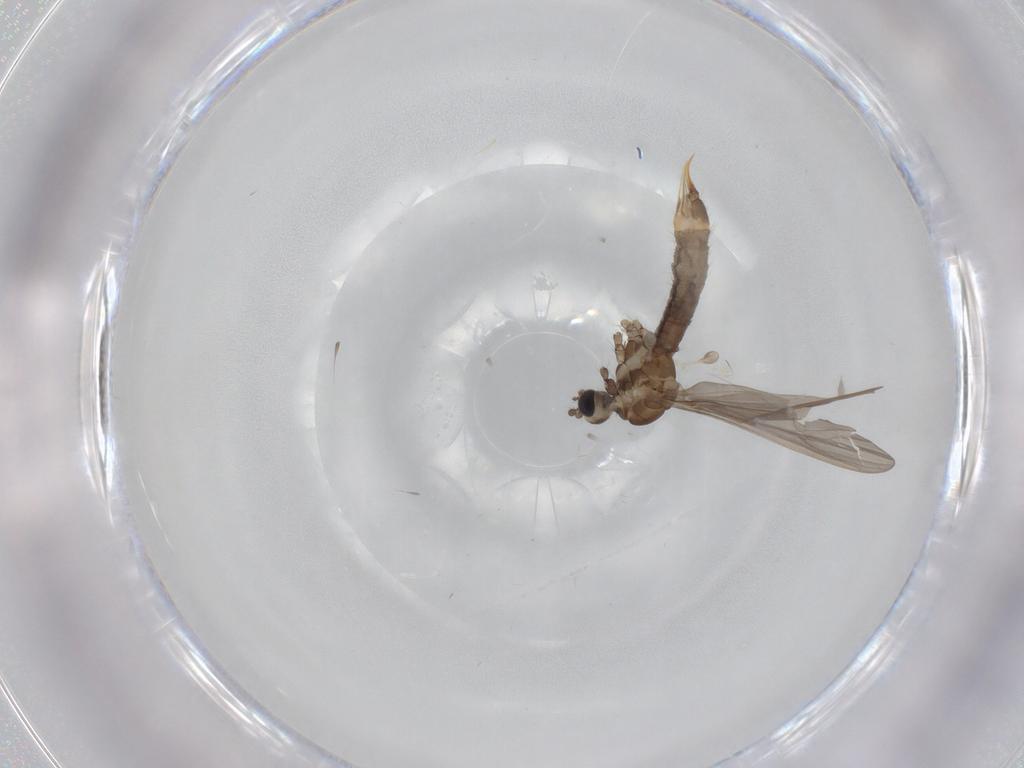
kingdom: Animalia
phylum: Arthropoda
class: Insecta
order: Diptera
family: Limoniidae
